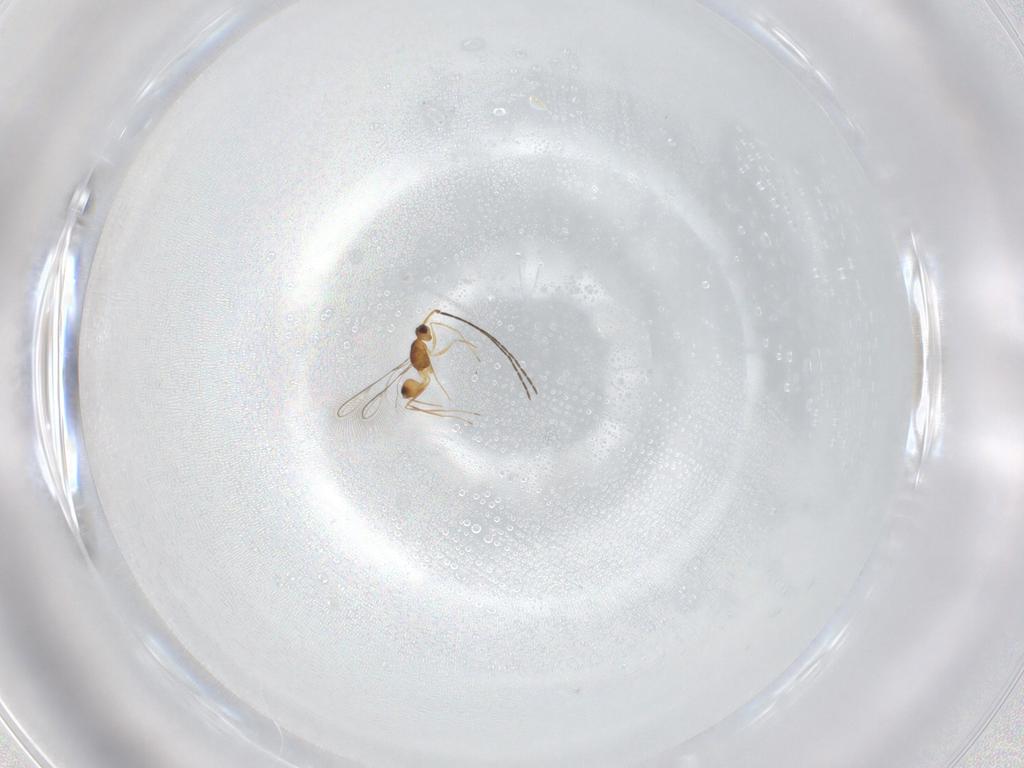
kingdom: Animalia
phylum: Arthropoda
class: Insecta
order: Hymenoptera
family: Mymaridae
